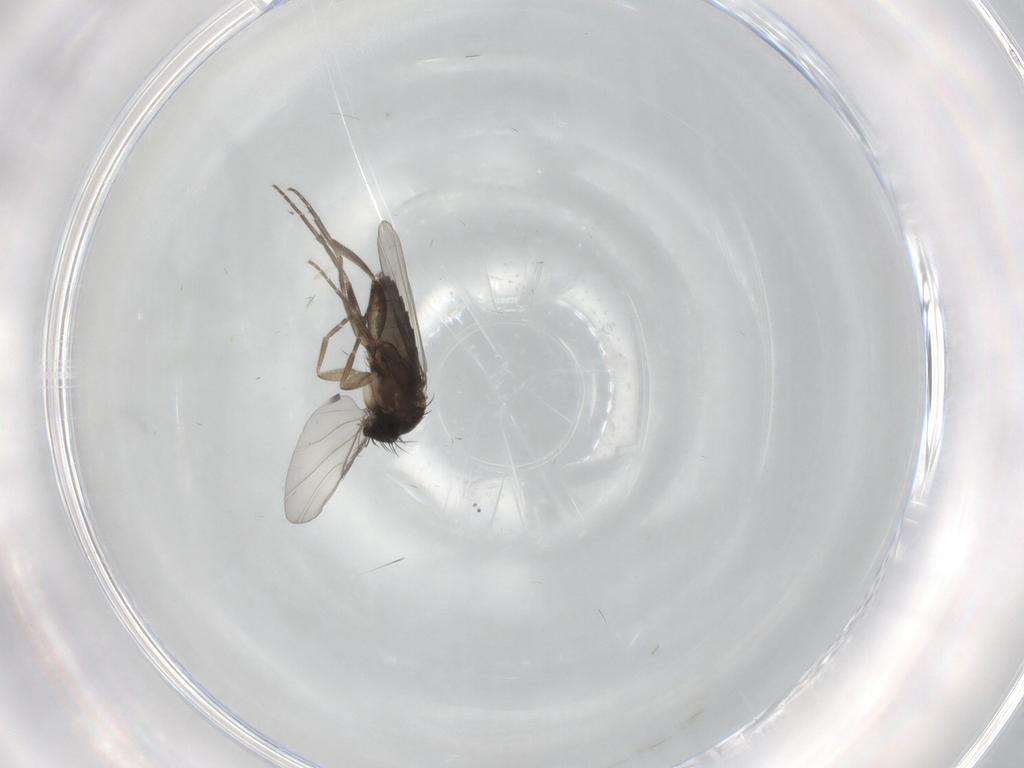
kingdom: Animalia
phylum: Arthropoda
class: Insecta
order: Diptera
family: Phoridae
